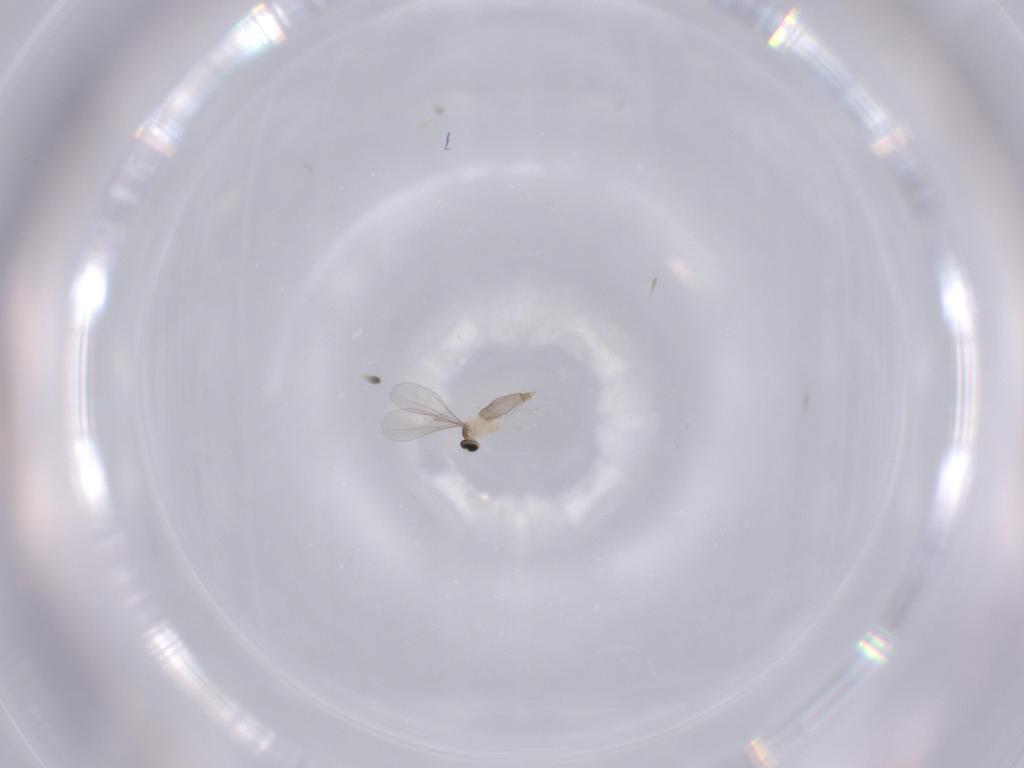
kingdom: Animalia
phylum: Arthropoda
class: Insecta
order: Diptera
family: Cecidomyiidae
